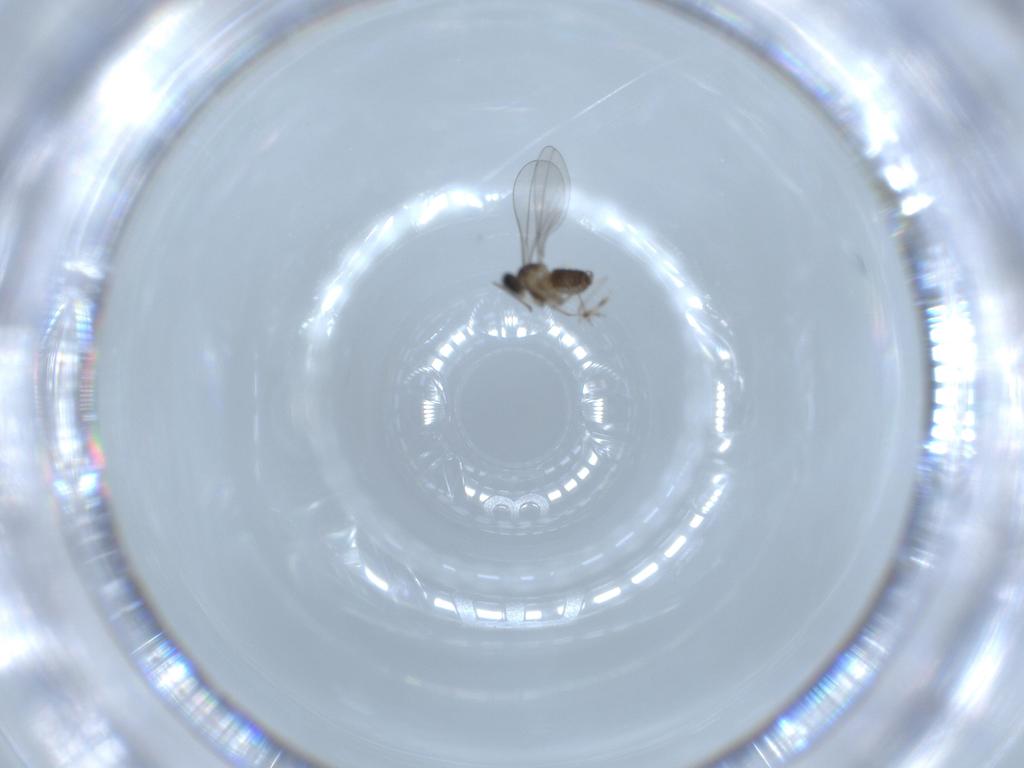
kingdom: Animalia
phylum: Arthropoda
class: Insecta
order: Diptera
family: Cecidomyiidae
